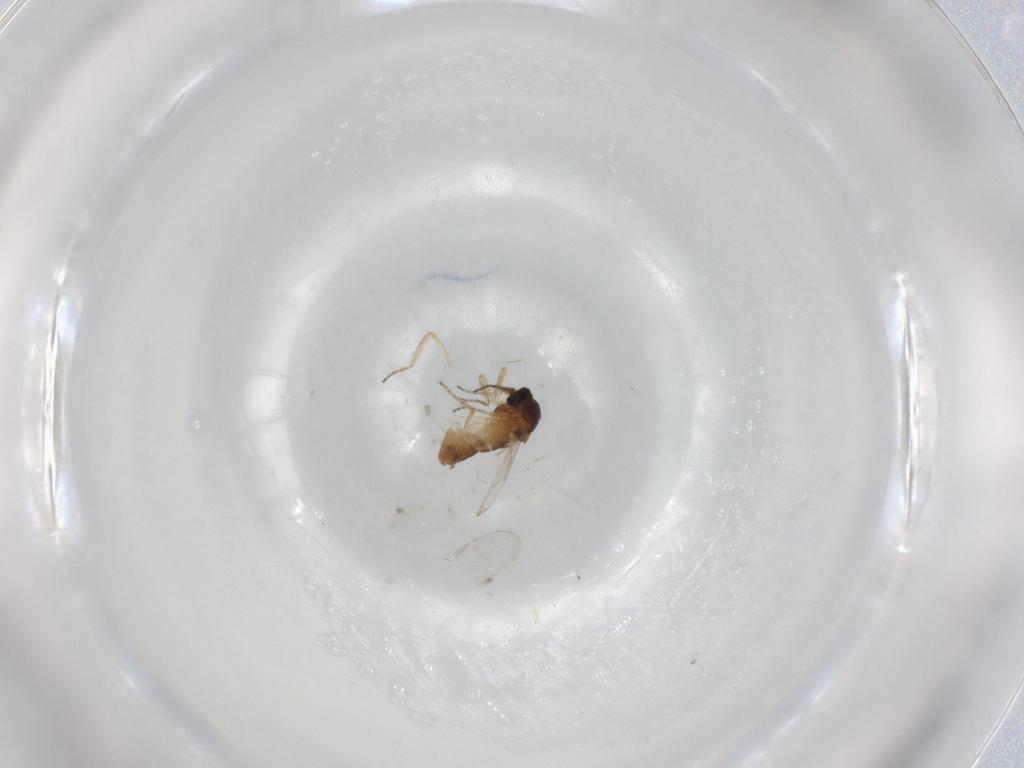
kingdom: Animalia
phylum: Arthropoda
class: Insecta
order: Diptera
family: Ceratopogonidae
